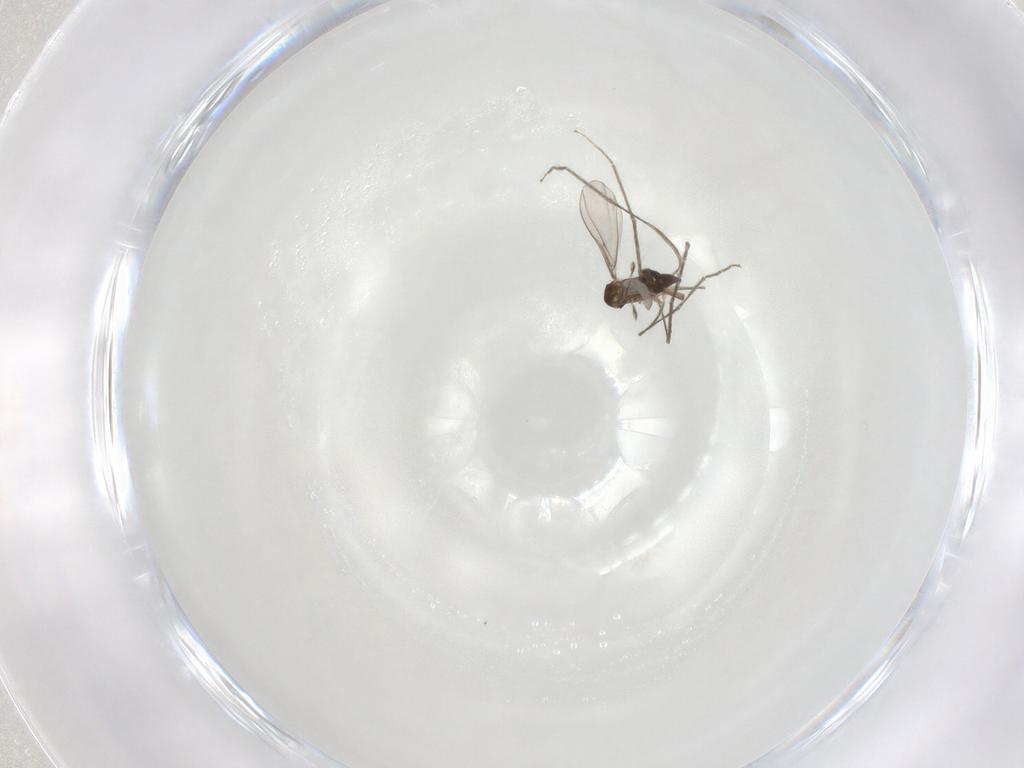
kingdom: Animalia
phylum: Arthropoda
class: Insecta
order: Diptera
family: Cecidomyiidae
